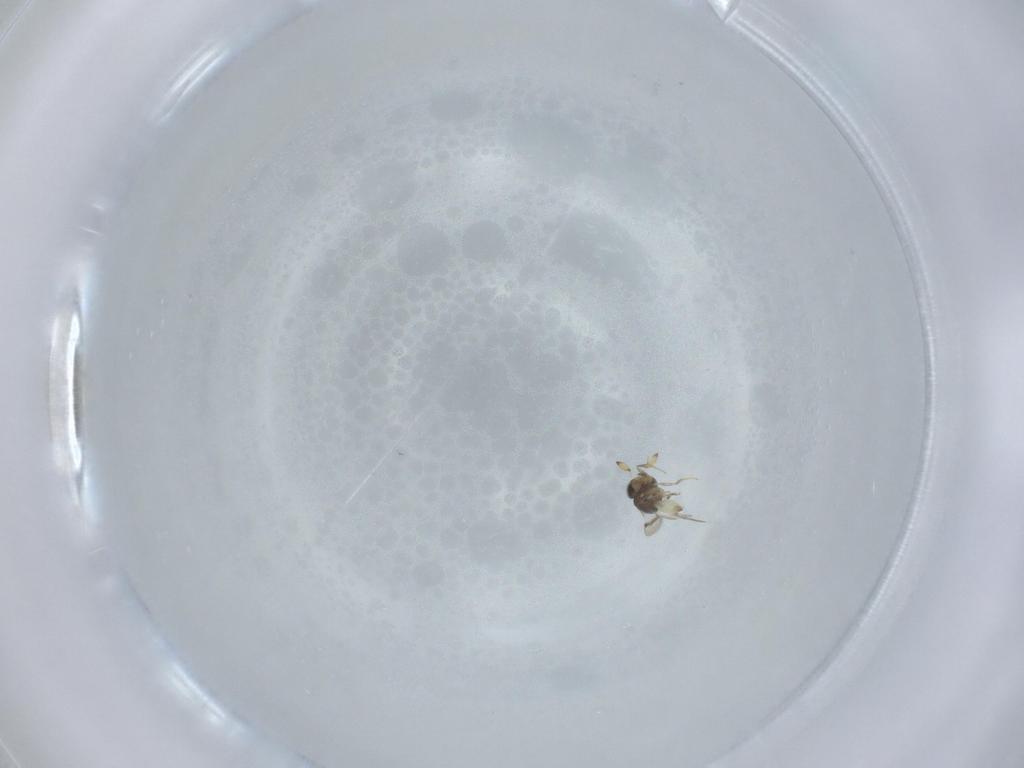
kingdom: Animalia
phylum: Arthropoda
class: Insecta
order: Hymenoptera
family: Scelionidae
